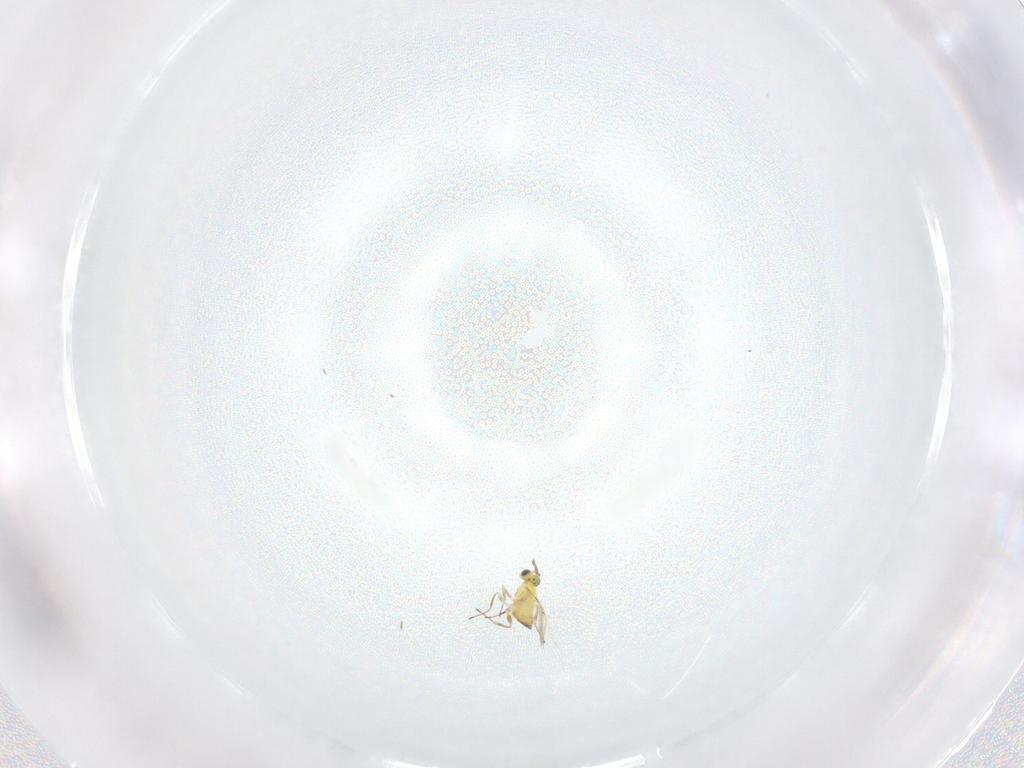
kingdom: Animalia
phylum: Arthropoda
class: Insecta
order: Hymenoptera
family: Trichogrammatidae
